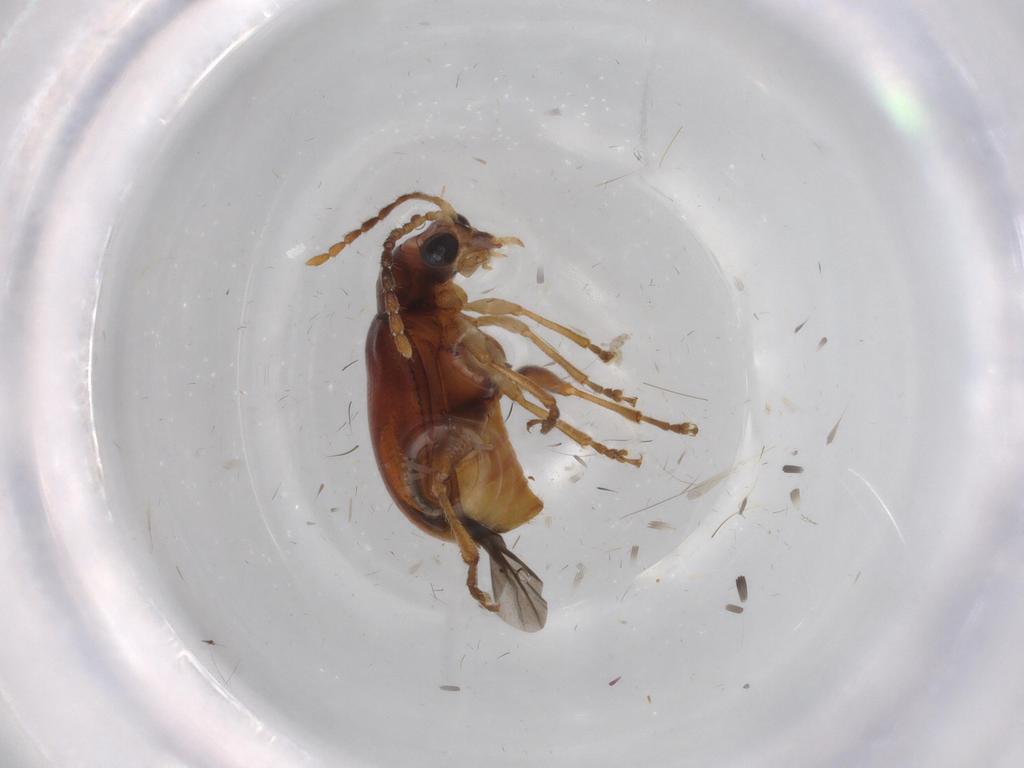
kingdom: Animalia
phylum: Arthropoda
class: Insecta
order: Coleoptera
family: Chrysomelidae
